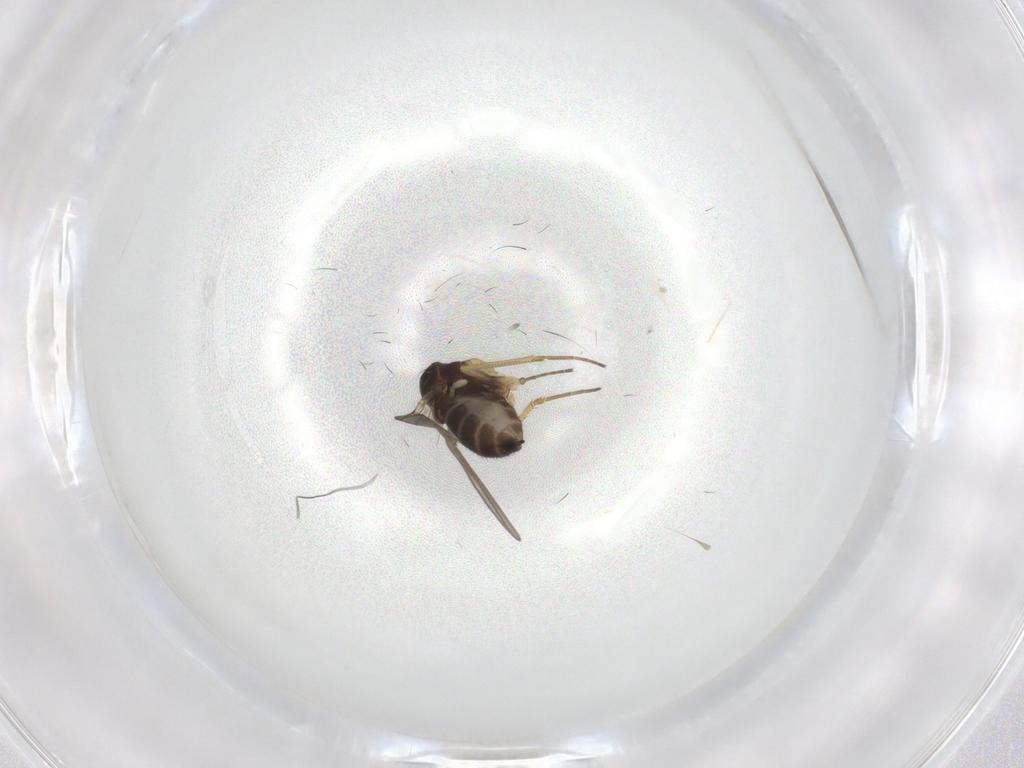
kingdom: Animalia
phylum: Arthropoda
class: Insecta
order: Diptera
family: Dolichopodidae
